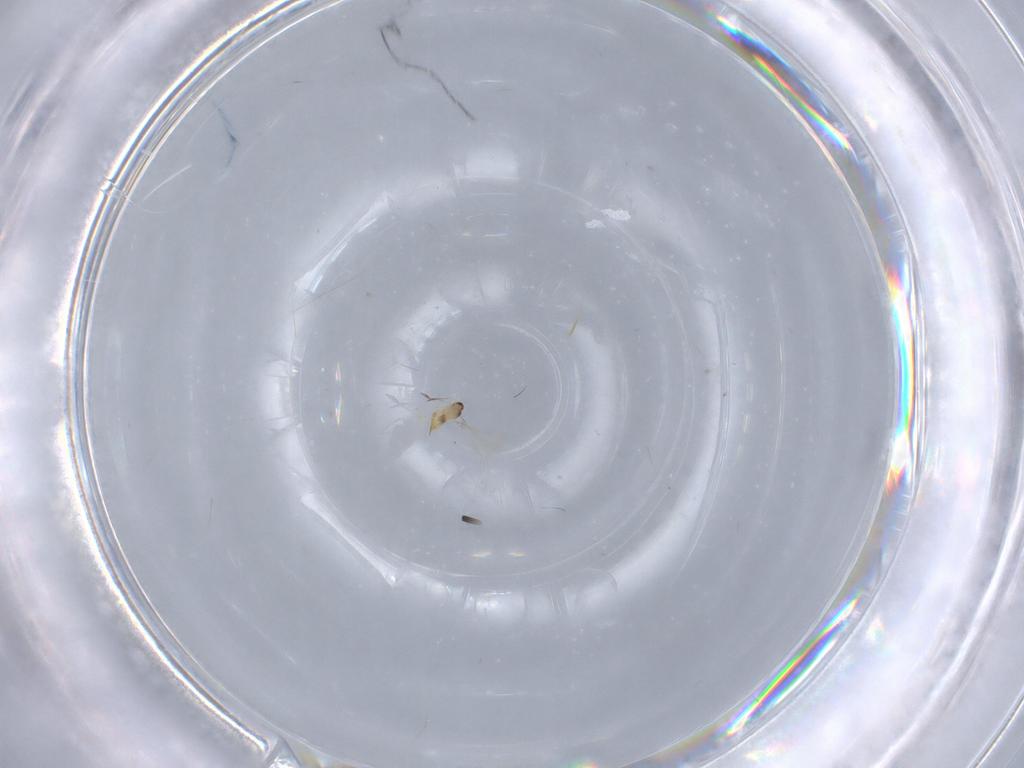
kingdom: Animalia
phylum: Arthropoda
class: Insecta
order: Hymenoptera
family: Mymaridae
